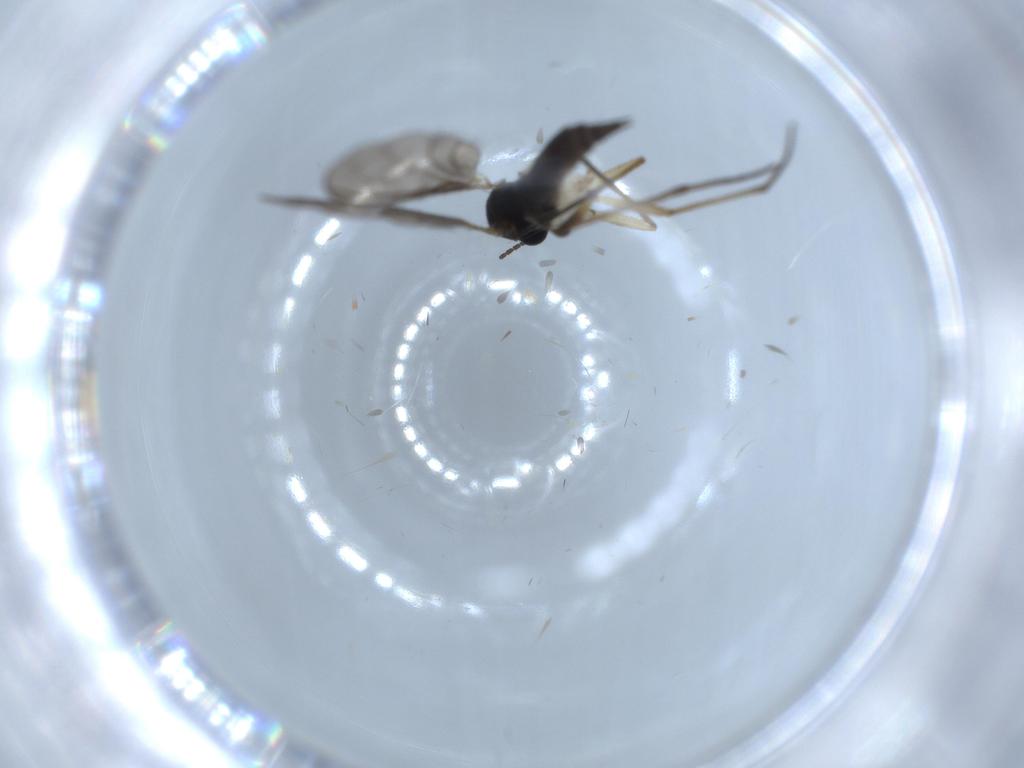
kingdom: Animalia
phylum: Arthropoda
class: Insecta
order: Diptera
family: Sciaridae
